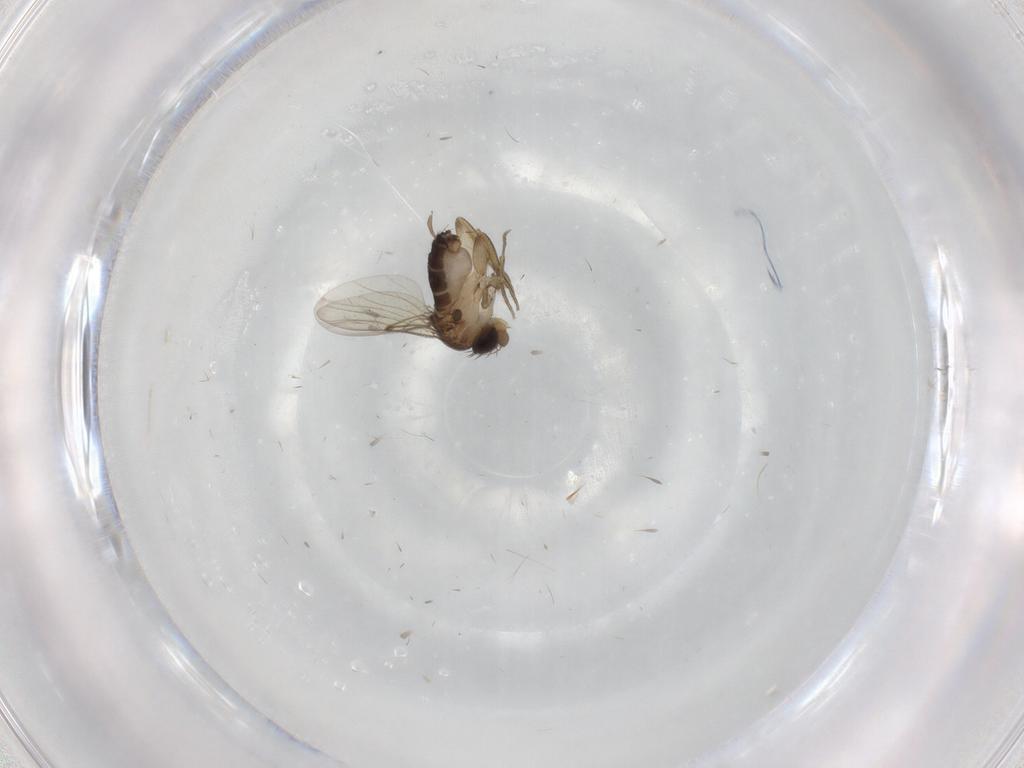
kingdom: Animalia
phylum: Arthropoda
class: Insecta
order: Diptera
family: Phoridae
